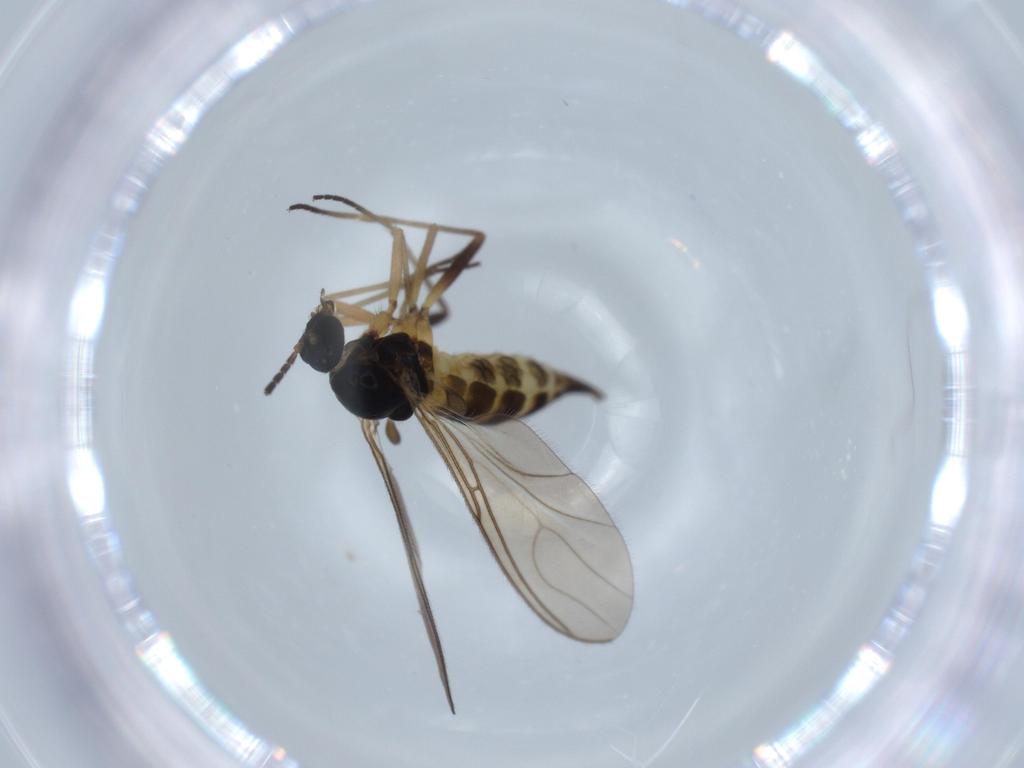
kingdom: Animalia
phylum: Arthropoda
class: Insecta
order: Diptera
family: Sciaridae
